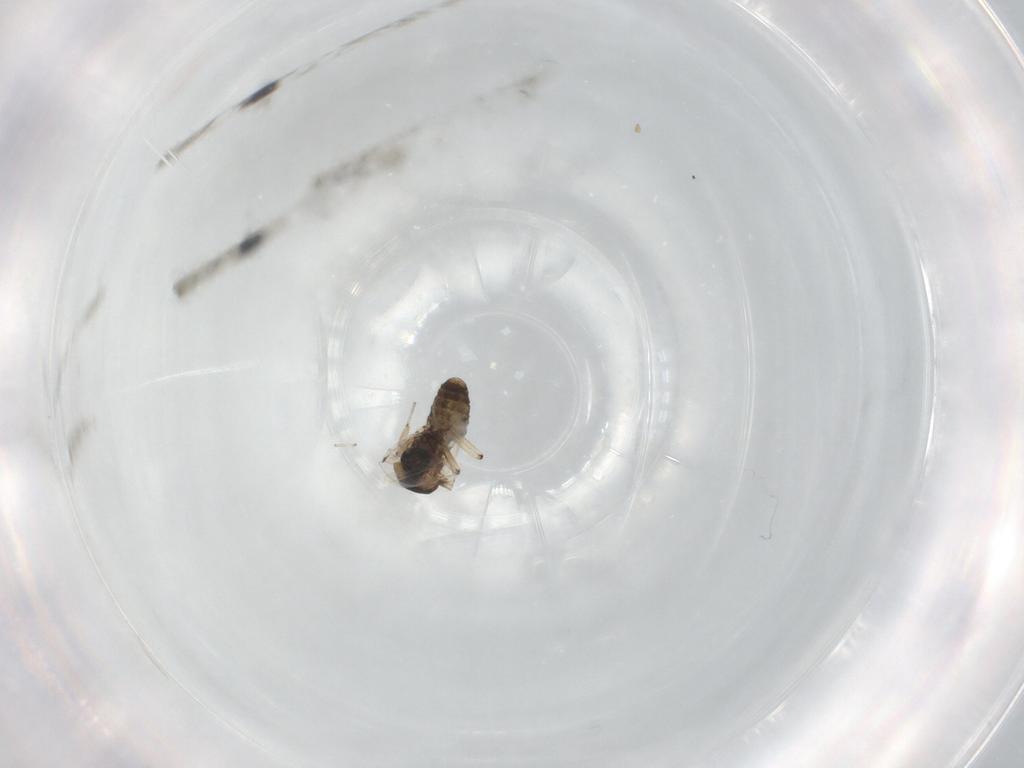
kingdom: Animalia
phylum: Arthropoda
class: Insecta
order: Diptera
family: Ceratopogonidae
